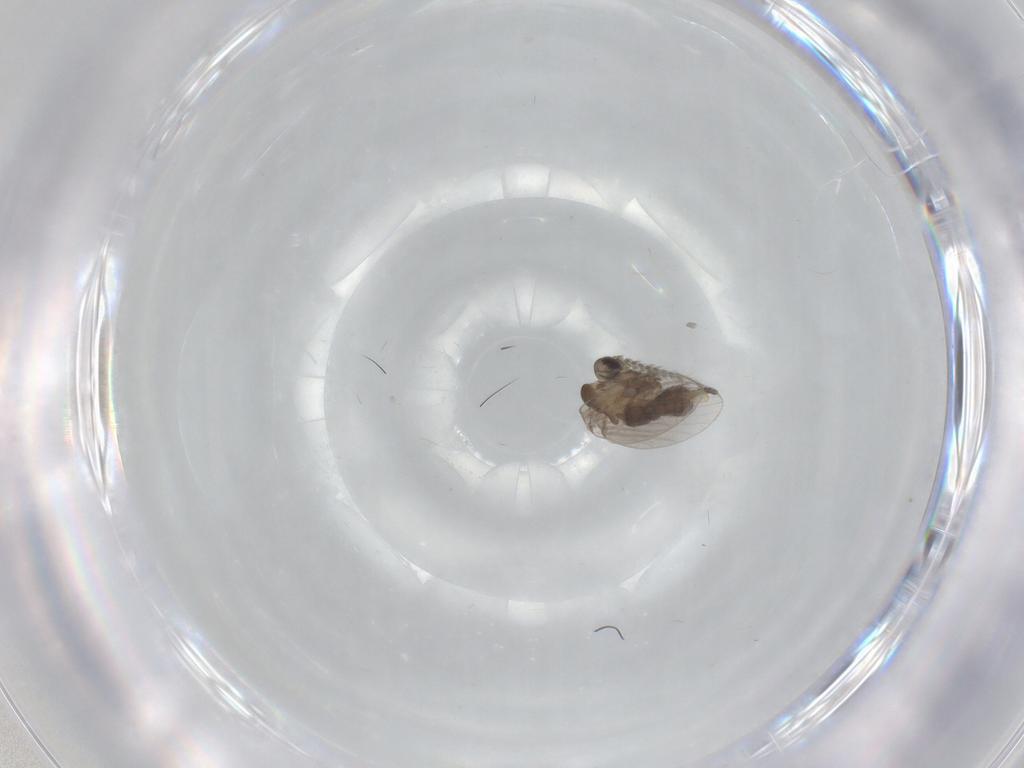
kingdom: Animalia
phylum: Arthropoda
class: Insecta
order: Diptera
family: Cecidomyiidae
